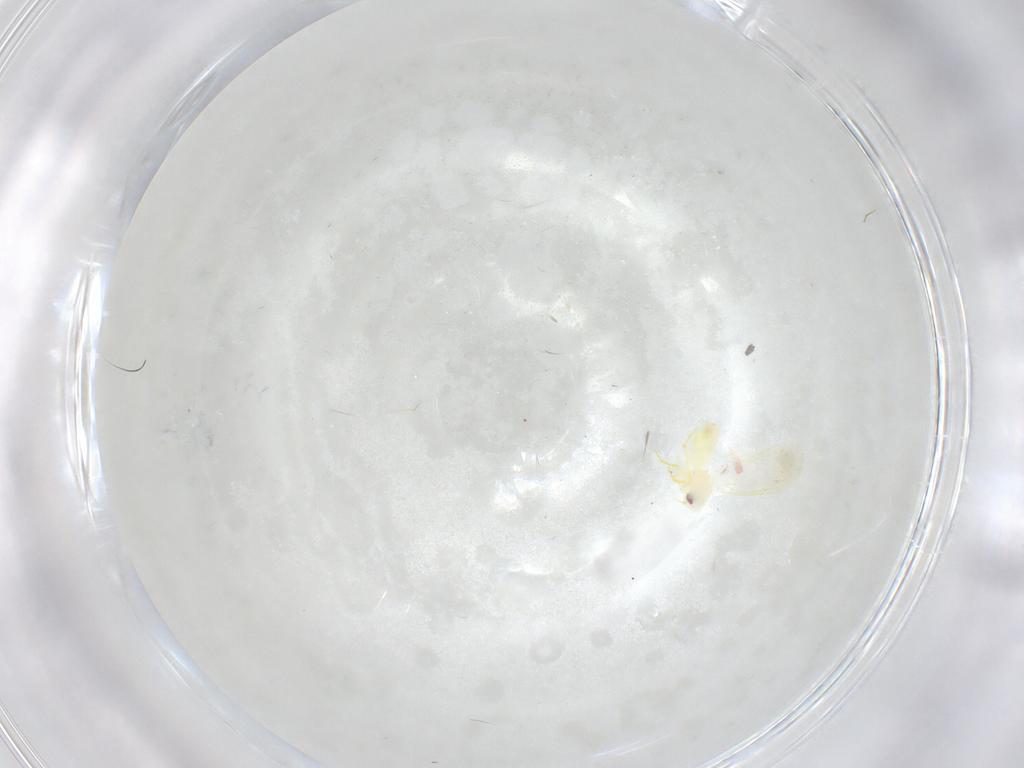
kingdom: Animalia
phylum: Arthropoda
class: Insecta
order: Hemiptera
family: Aleyrodidae
